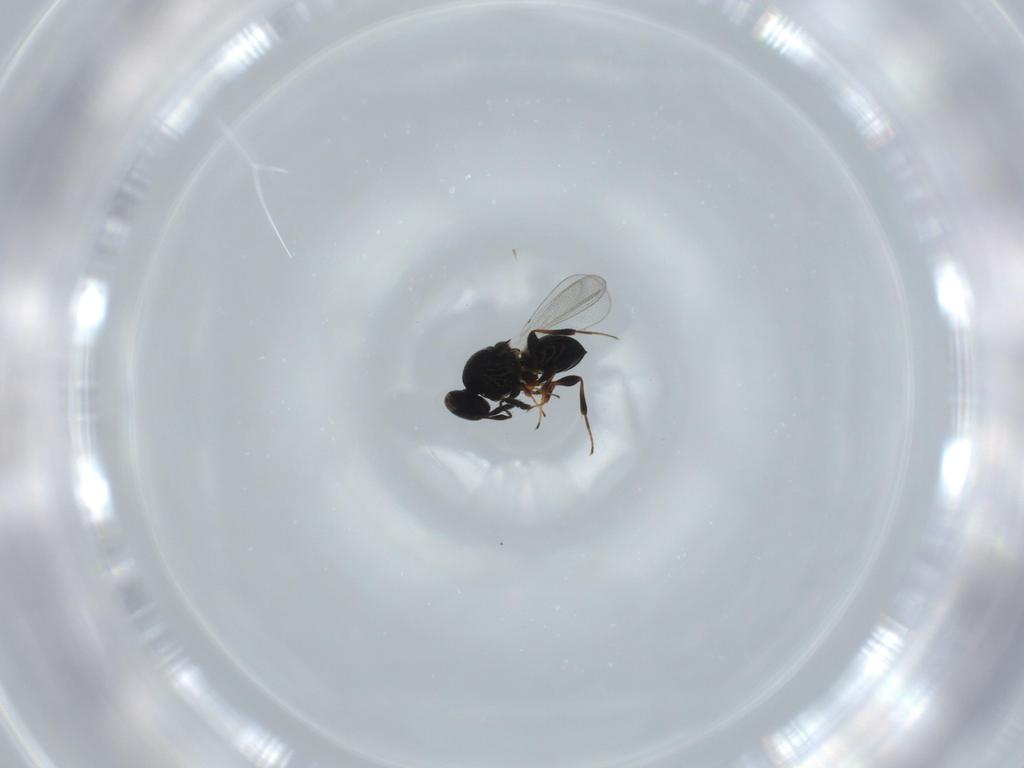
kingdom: Animalia
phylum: Arthropoda
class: Insecta
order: Hymenoptera
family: Platygastridae
